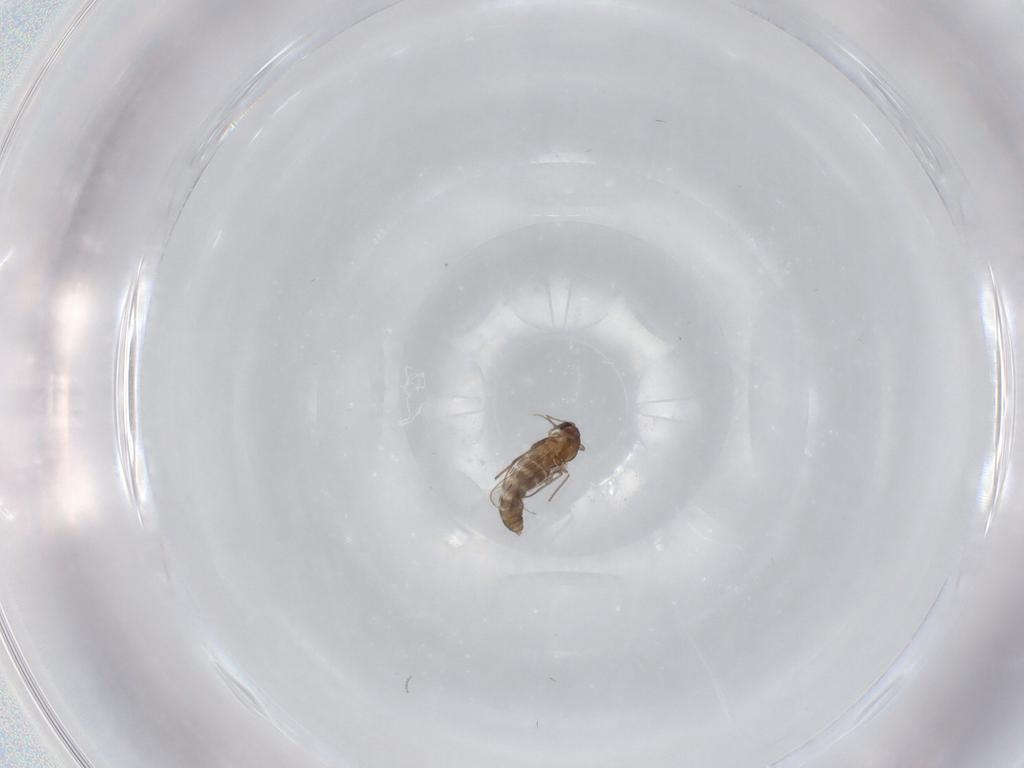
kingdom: Animalia
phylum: Arthropoda
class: Insecta
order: Diptera
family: Chironomidae
